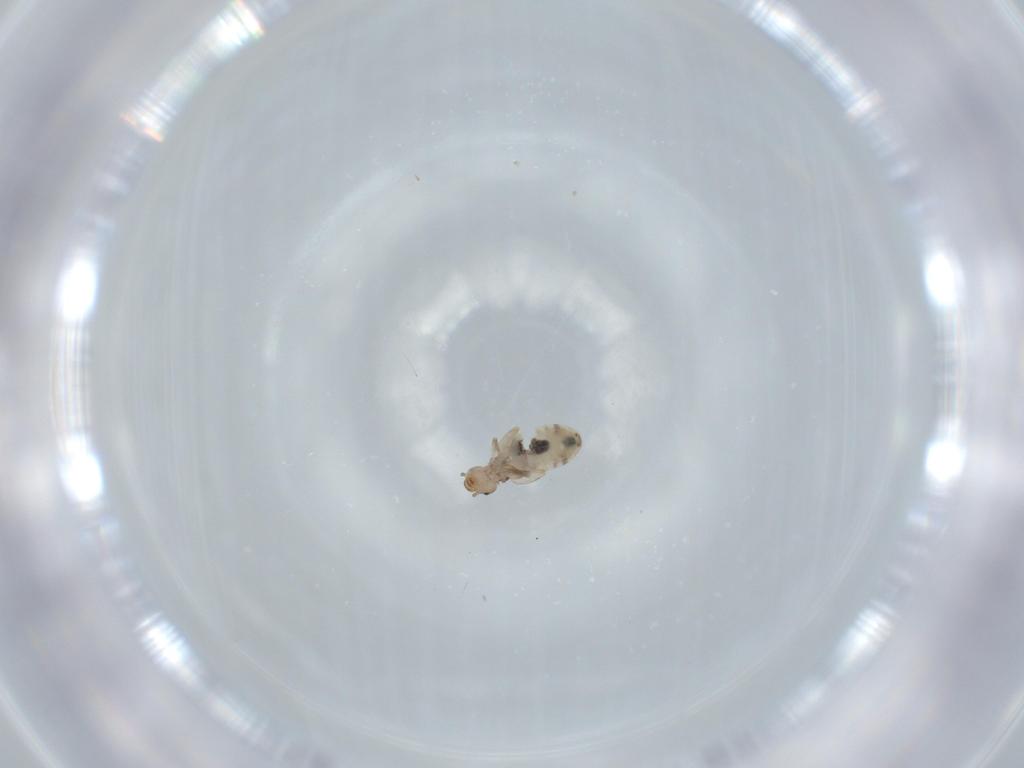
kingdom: Animalia
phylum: Arthropoda
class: Insecta
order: Psocodea
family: Liposcelididae
